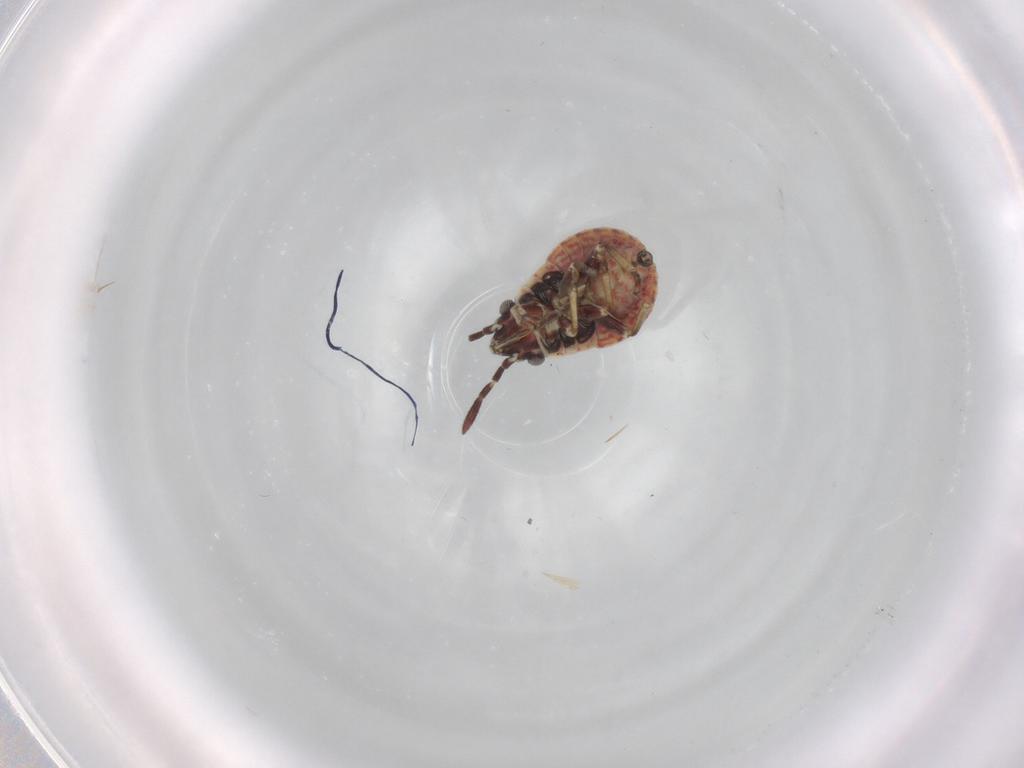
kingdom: Animalia
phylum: Arthropoda
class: Insecta
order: Hemiptera
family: Lygaeidae
